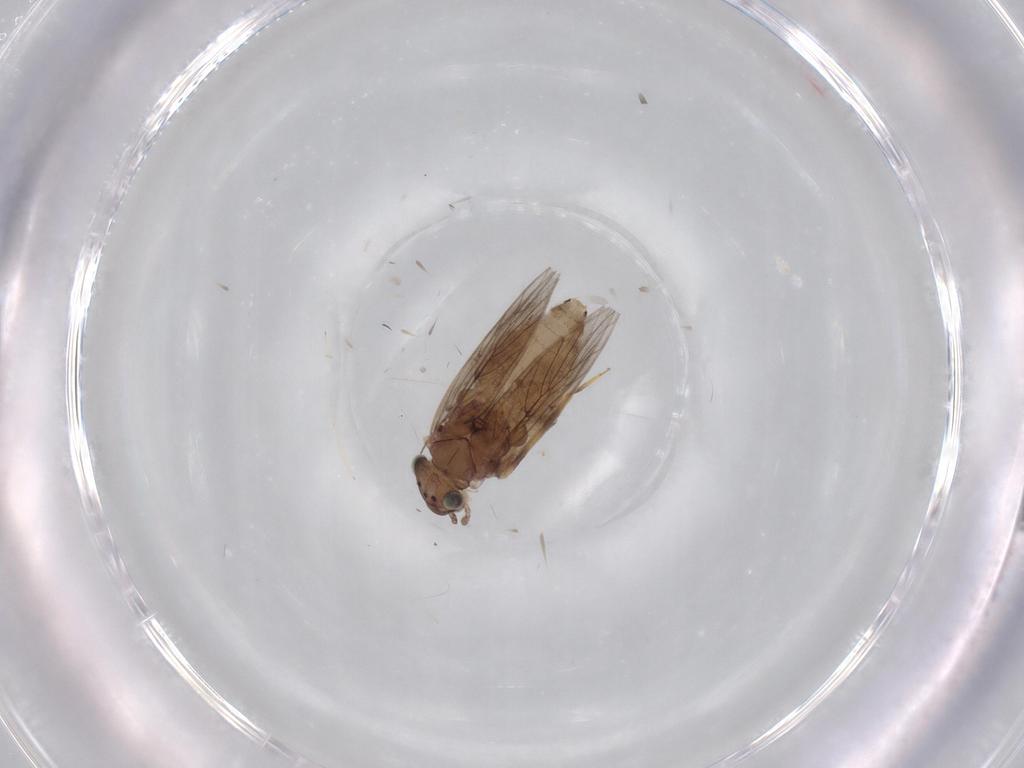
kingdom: Animalia
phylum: Arthropoda
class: Insecta
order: Psocodea
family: Lepidopsocidae
